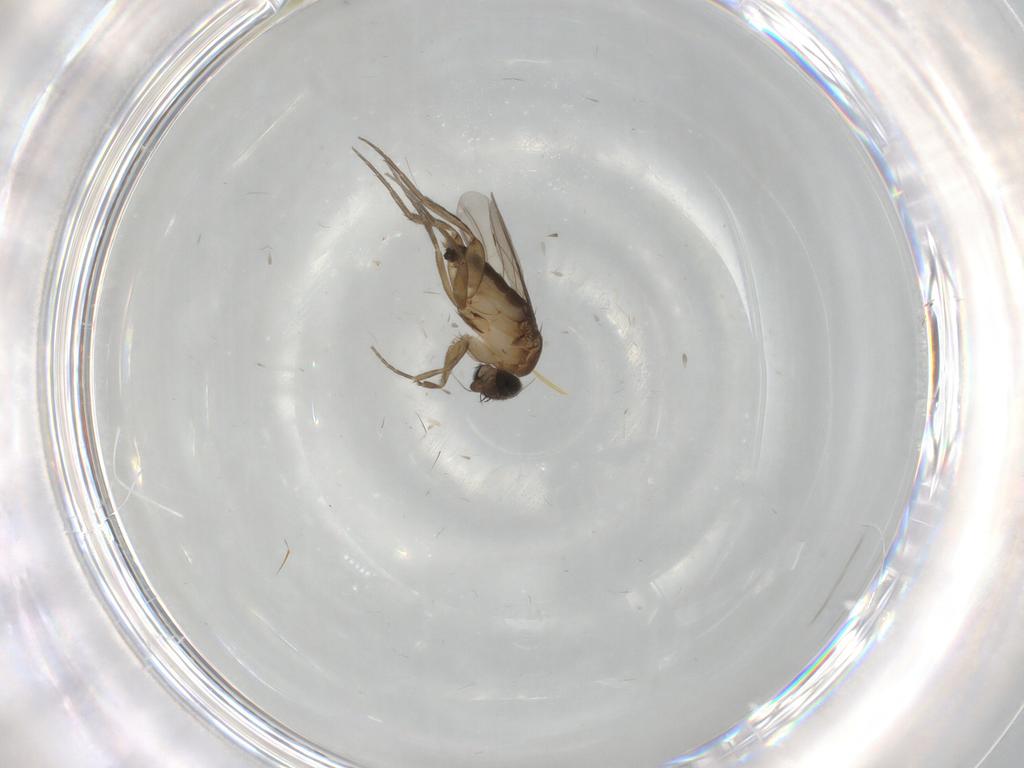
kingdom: Animalia
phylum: Arthropoda
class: Insecta
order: Diptera
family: Phoridae
